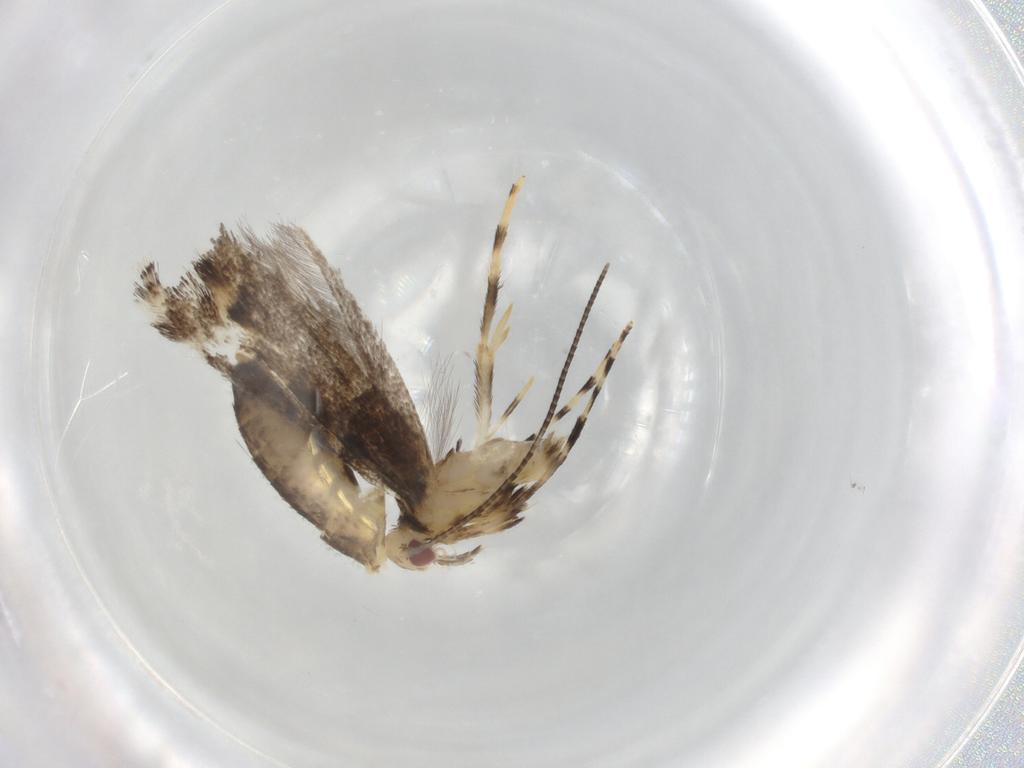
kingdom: Animalia
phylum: Arthropoda
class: Insecta
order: Lepidoptera
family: Gracillariidae
